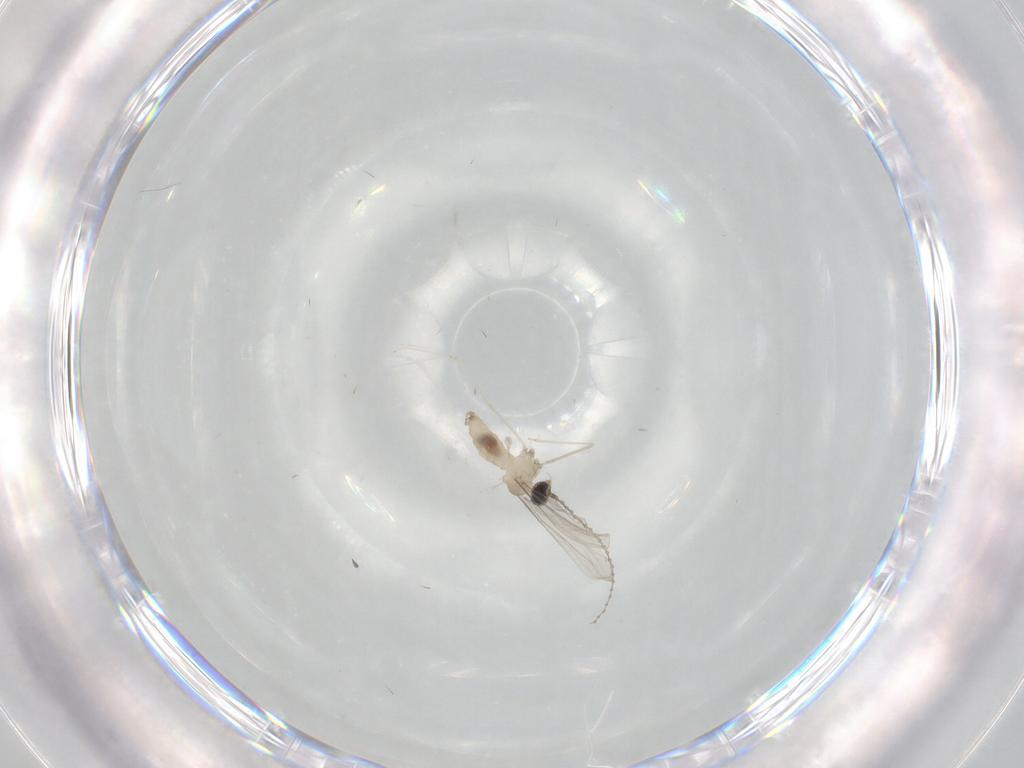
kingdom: Animalia
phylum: Arthropoda
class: Insecta
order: Diptera
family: Cecidomyiidae
